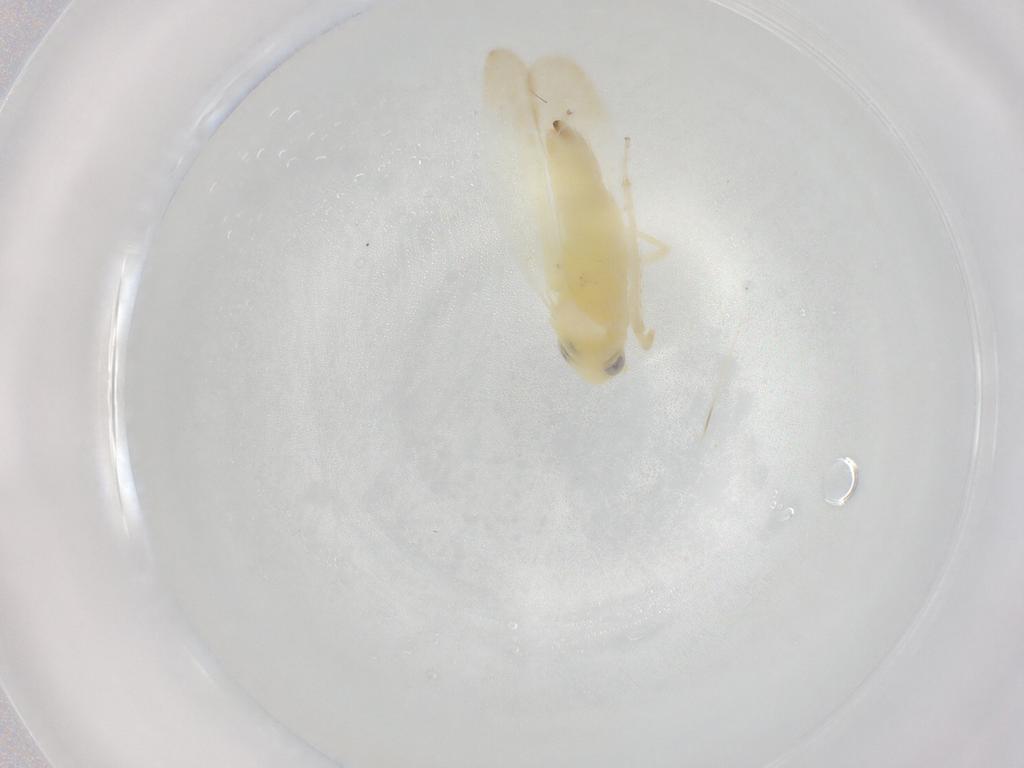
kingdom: Animalia
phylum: Arthropoda
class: Insecta
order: Hemiptera
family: Cicadellidae
